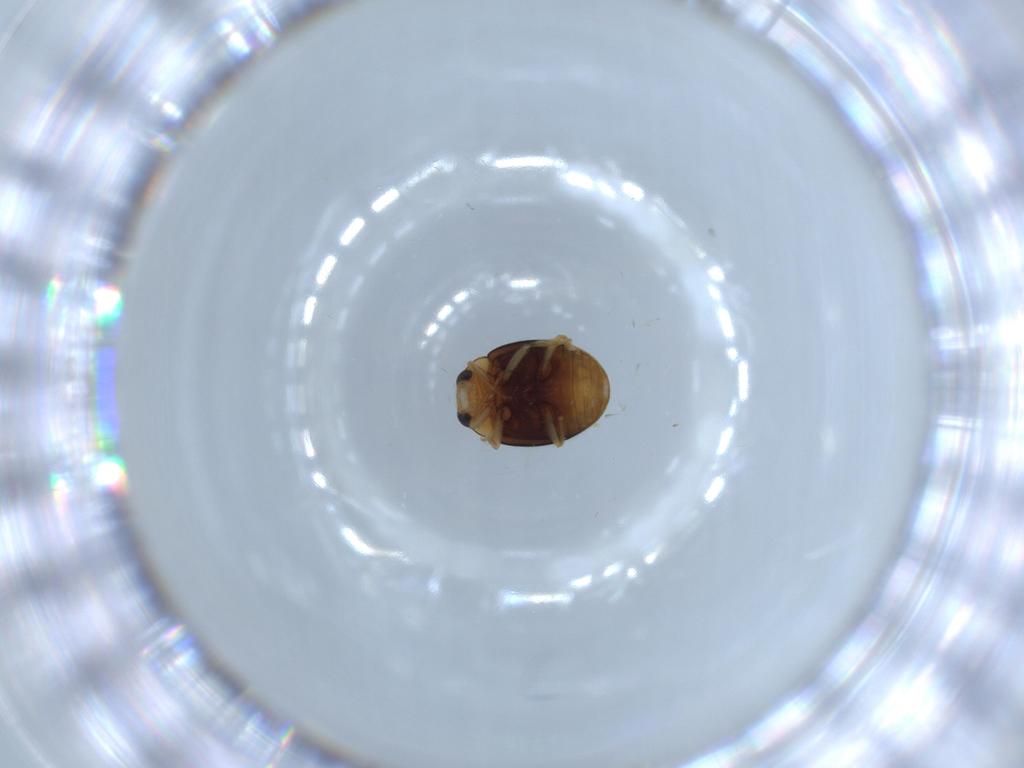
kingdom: Animalia
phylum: Arthropoda
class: Insecta
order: Coleoptera
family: Coccinellidae
